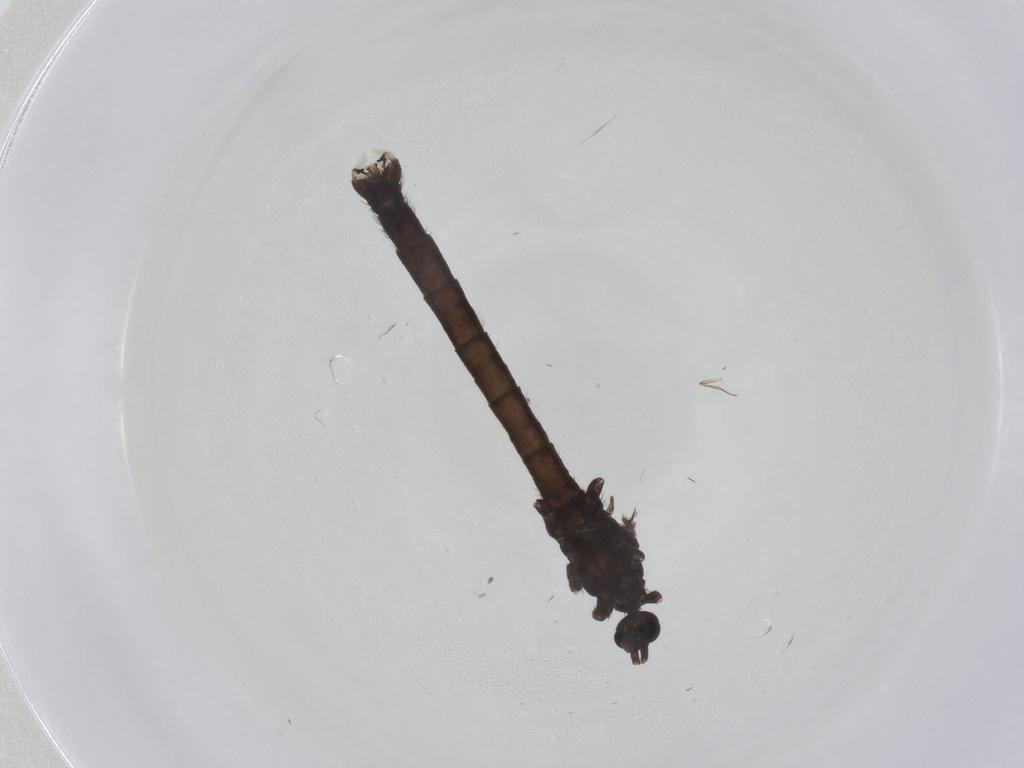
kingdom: Animalia
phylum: Arthropoda
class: Insecta
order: Diptera
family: Limoniidae
